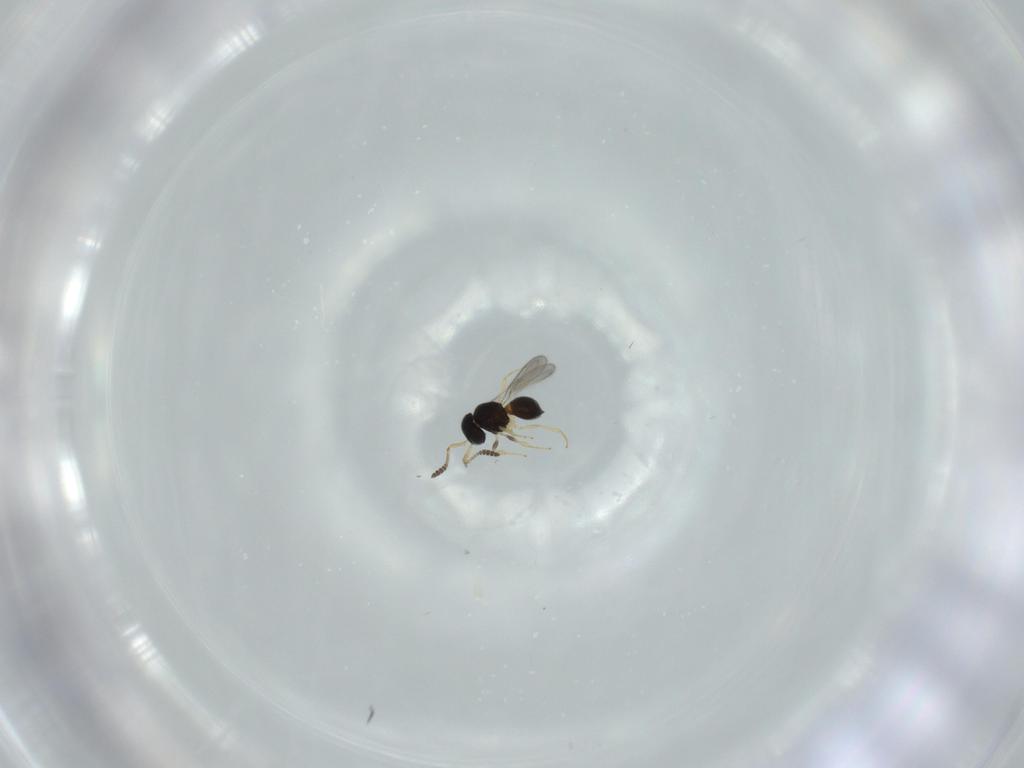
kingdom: Animalia
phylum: Arthropoda
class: Insecta
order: Hymenoptera
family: Scelionidae
